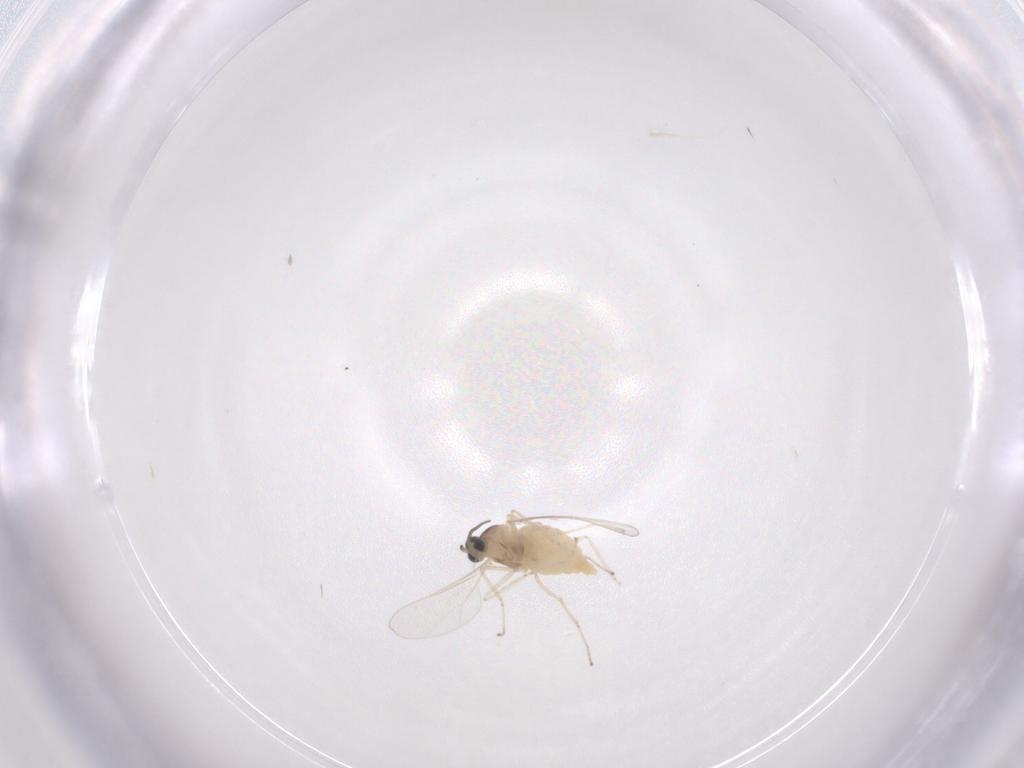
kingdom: Animalia
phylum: Arthropoda
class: Insecta
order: Diptera
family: Cecidomyiidae
